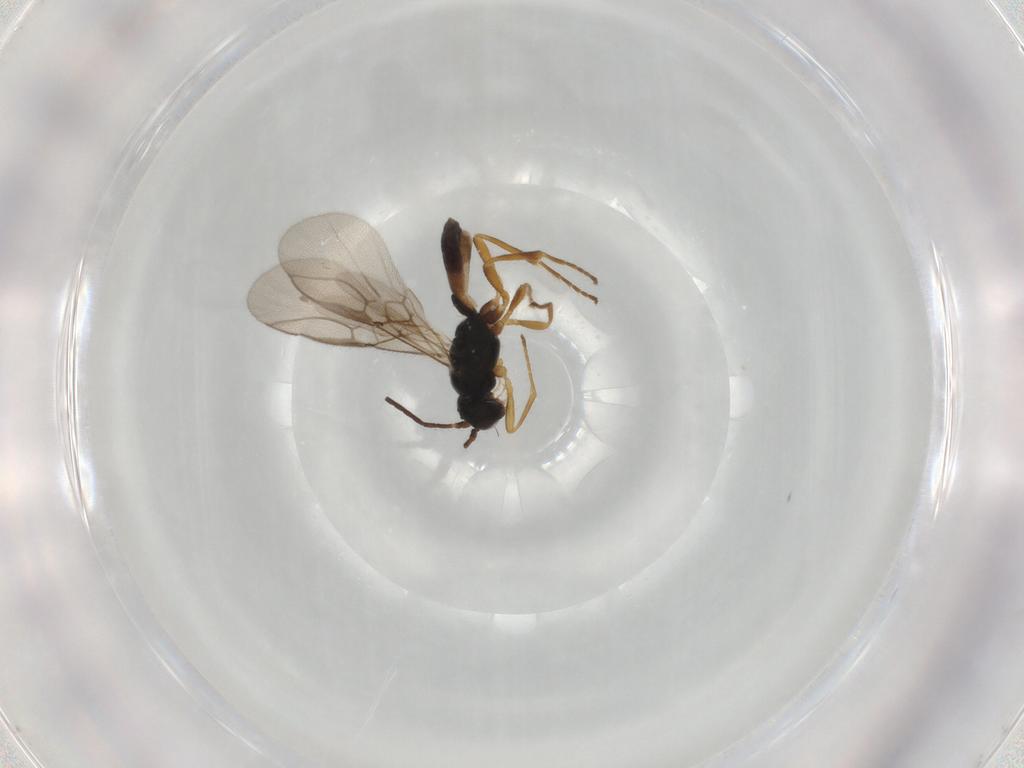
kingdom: Animalia
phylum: Arthropoda
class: Insecta
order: Hymenoptera
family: Braconidae
